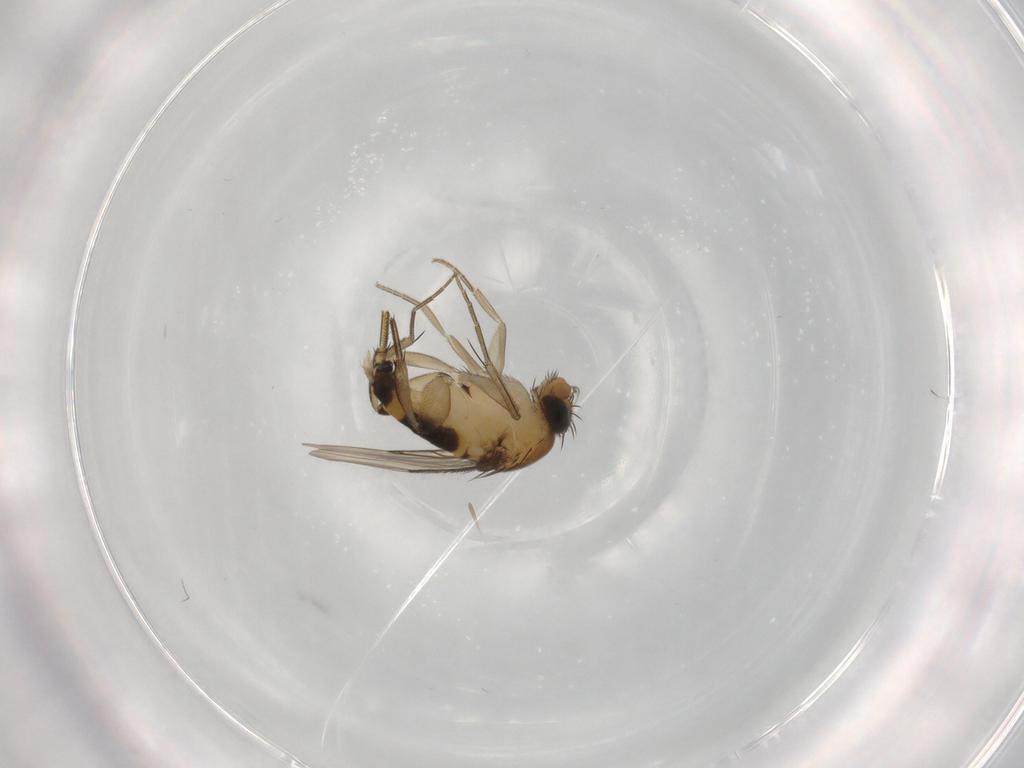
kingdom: Animalia
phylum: Arthropoda
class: Insecta
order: Diptera
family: Phoridae
